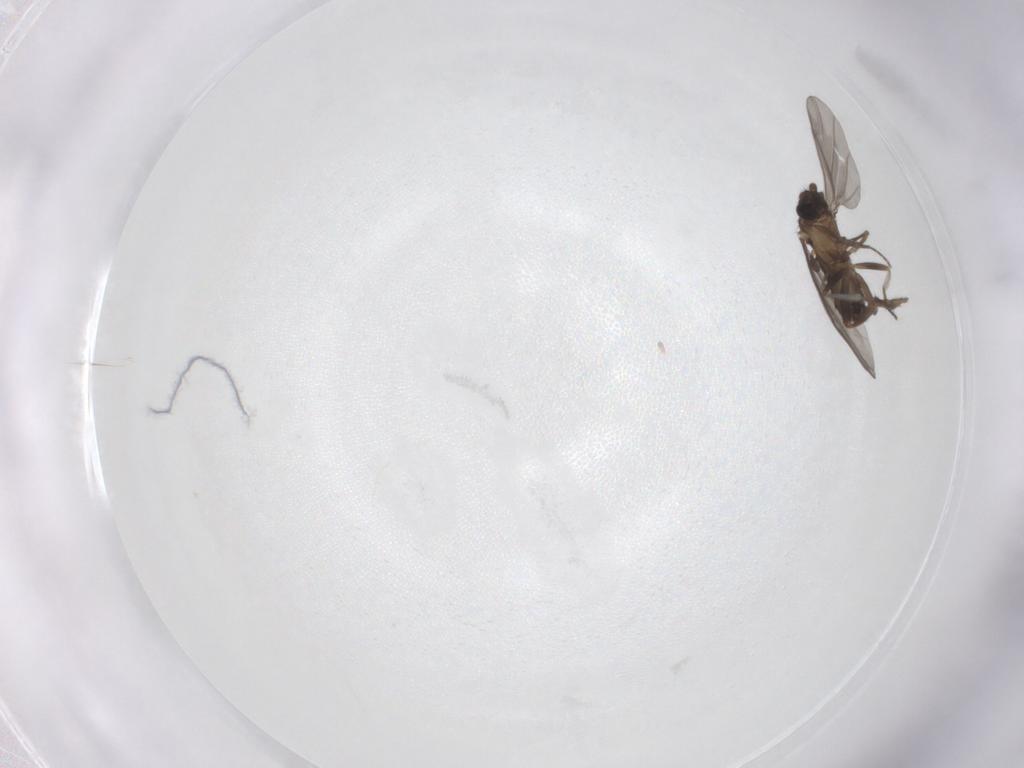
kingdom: Animalia
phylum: Arthropoda
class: Insecta
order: Diptera
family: Phoridae
